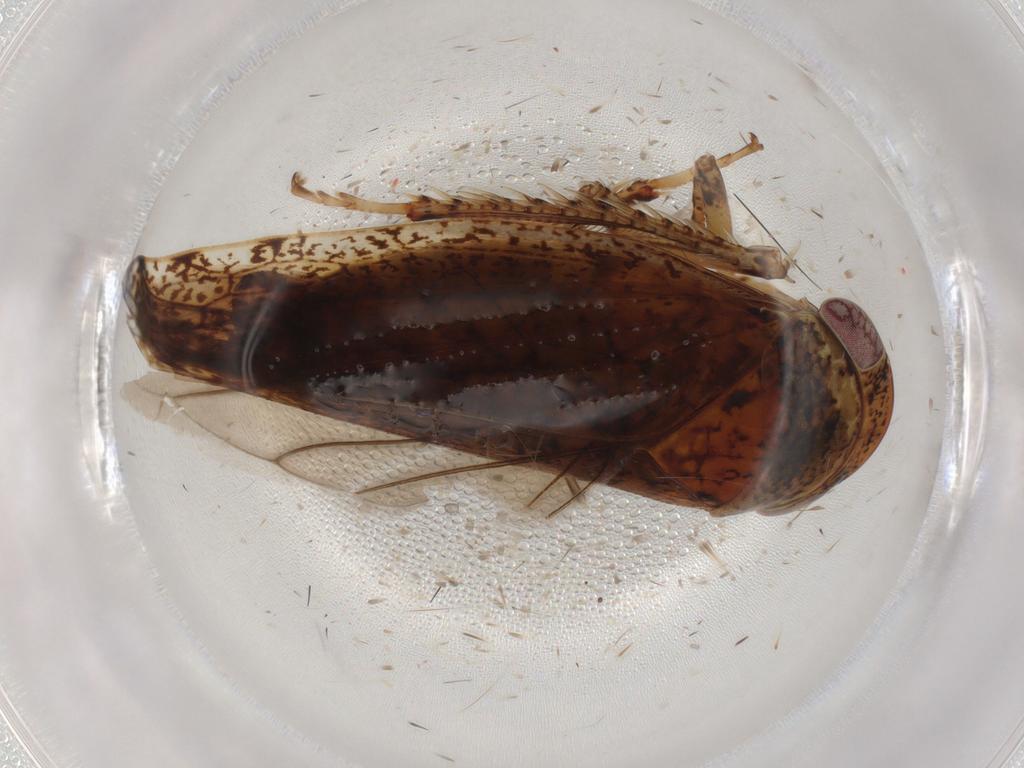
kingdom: Animalia
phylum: Arthropoda
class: Insecta
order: Hemiptera
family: Cicadellidae
